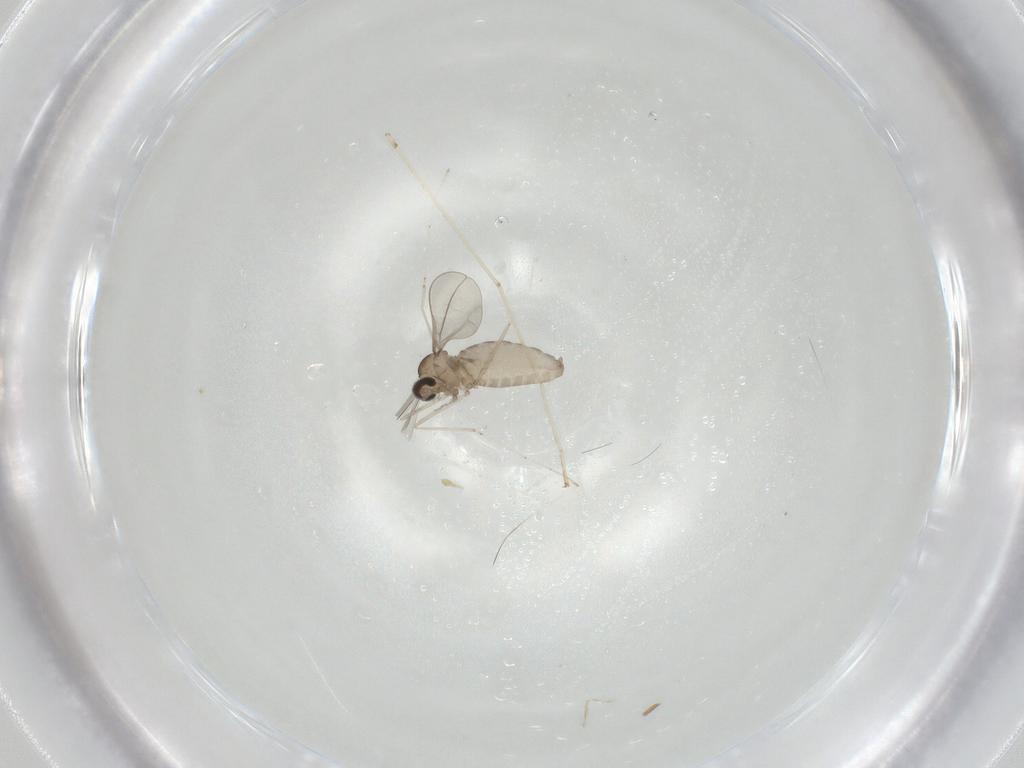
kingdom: Animalia
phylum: Arthropoda
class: Insecta
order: Diptera
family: Cecidomyiidae
